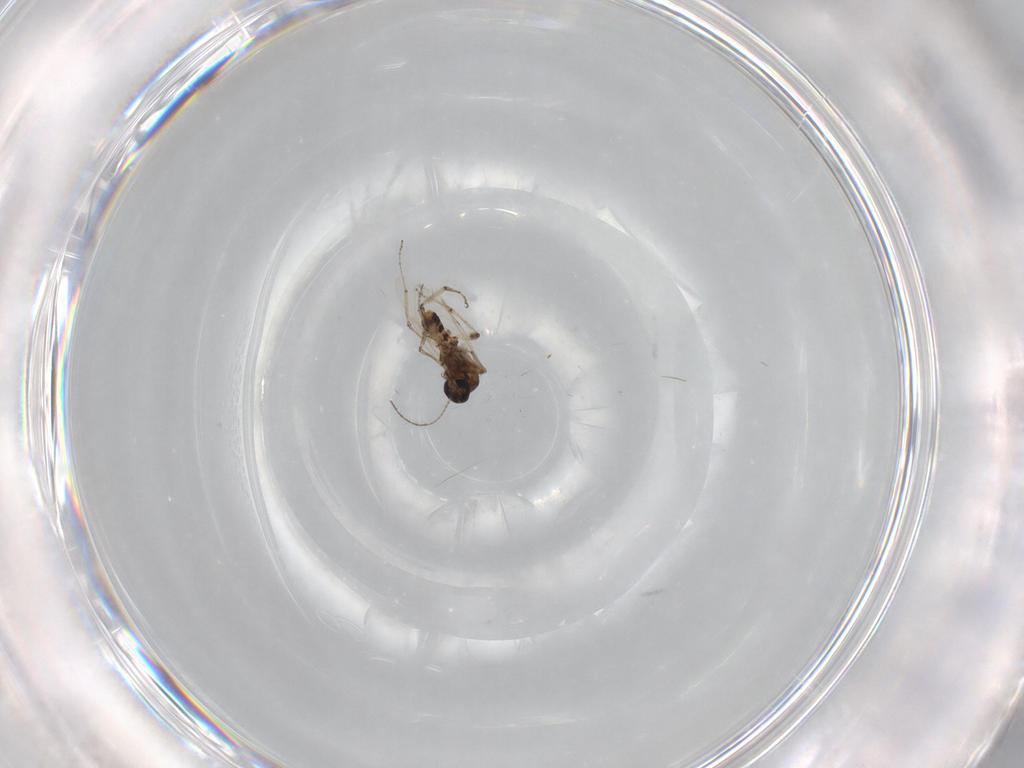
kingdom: Animalia
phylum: Arthropoda
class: Insecta
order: Diptera
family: Ceratopogonidae
